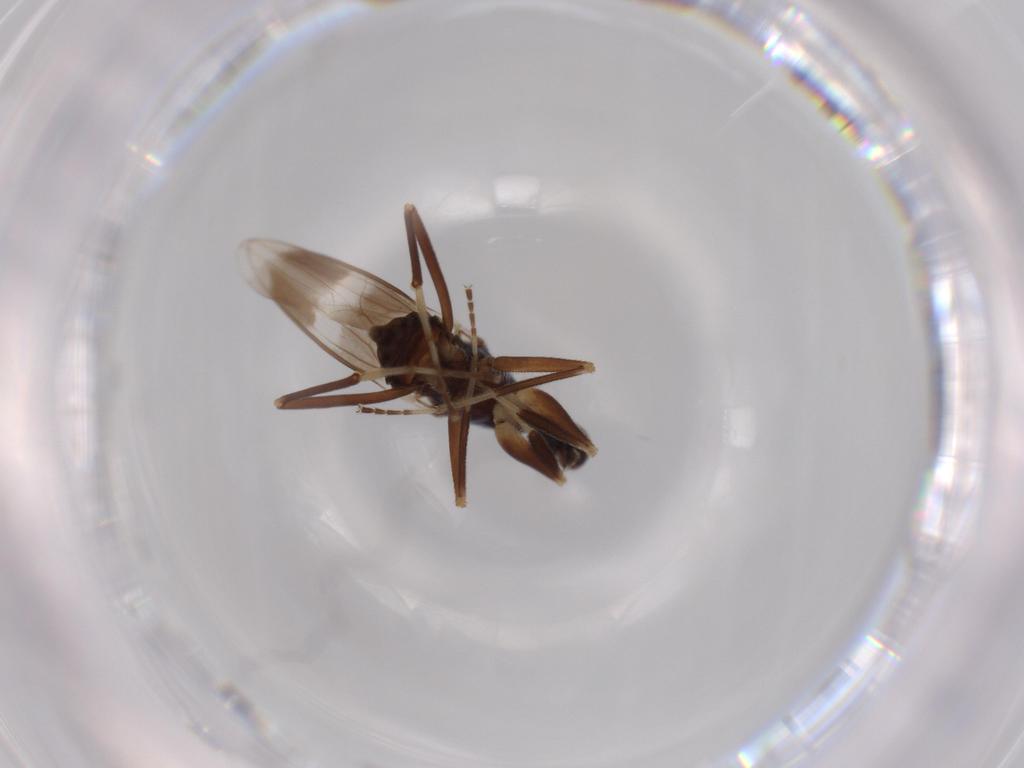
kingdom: Animalia
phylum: Arthropoda
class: Insecta
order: Diptera
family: Hybotidae
